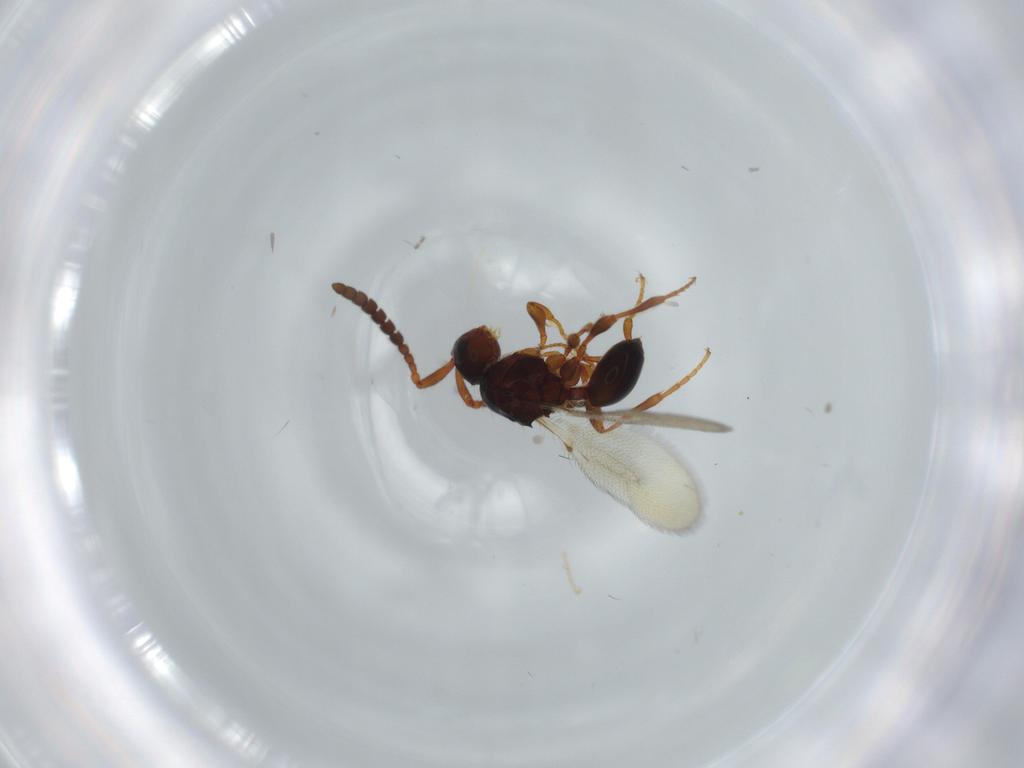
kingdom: Animalia
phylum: Arthropoda
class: Insecta
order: Hymenoptera
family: Diapriidae
